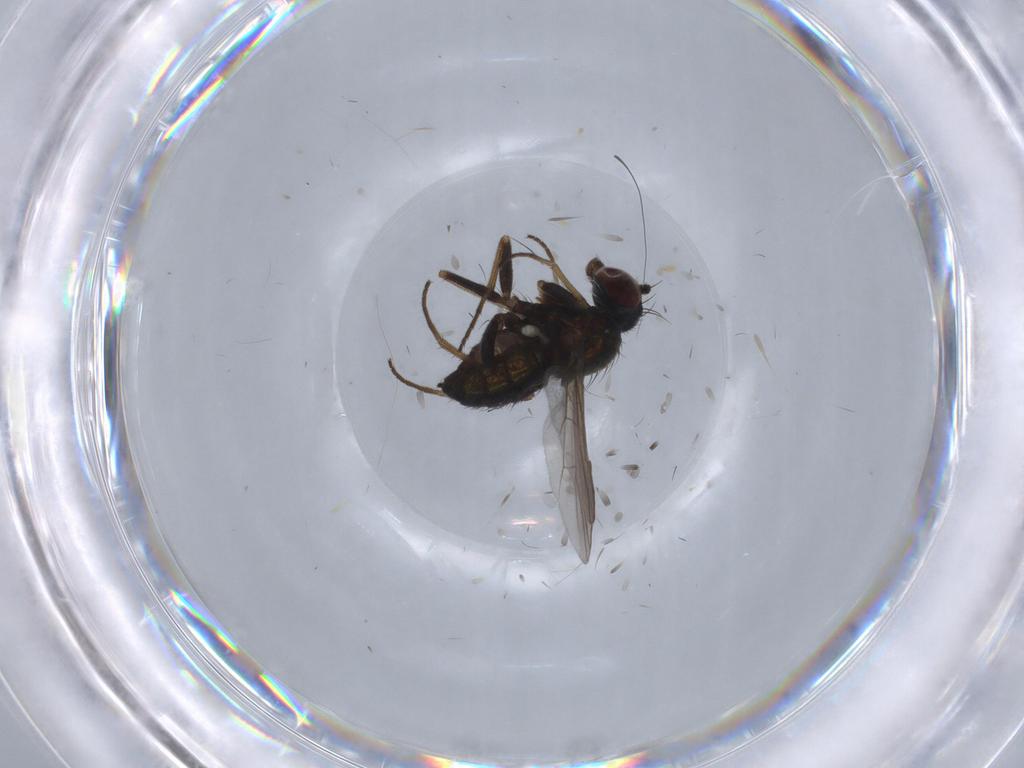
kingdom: Animalia
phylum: Arthropoda
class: Insecta
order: Diptera
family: Dolichopodidae
